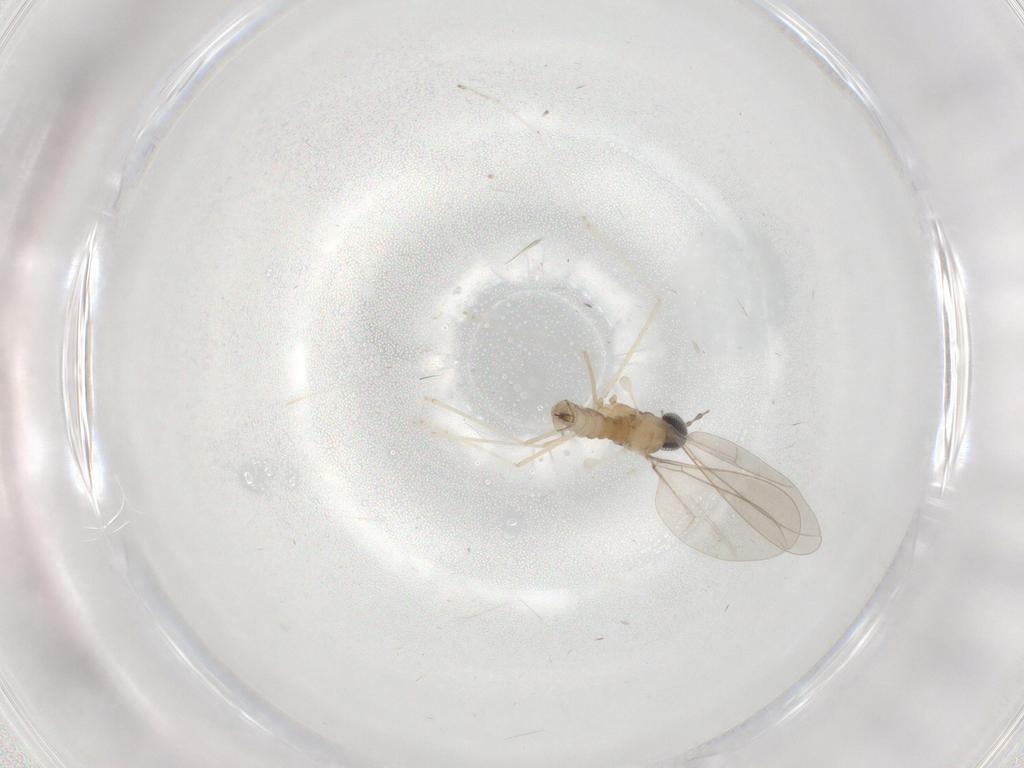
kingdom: Animalia
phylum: Arthropoda
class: Insecta
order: Diptera
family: Cecidomyiidae
